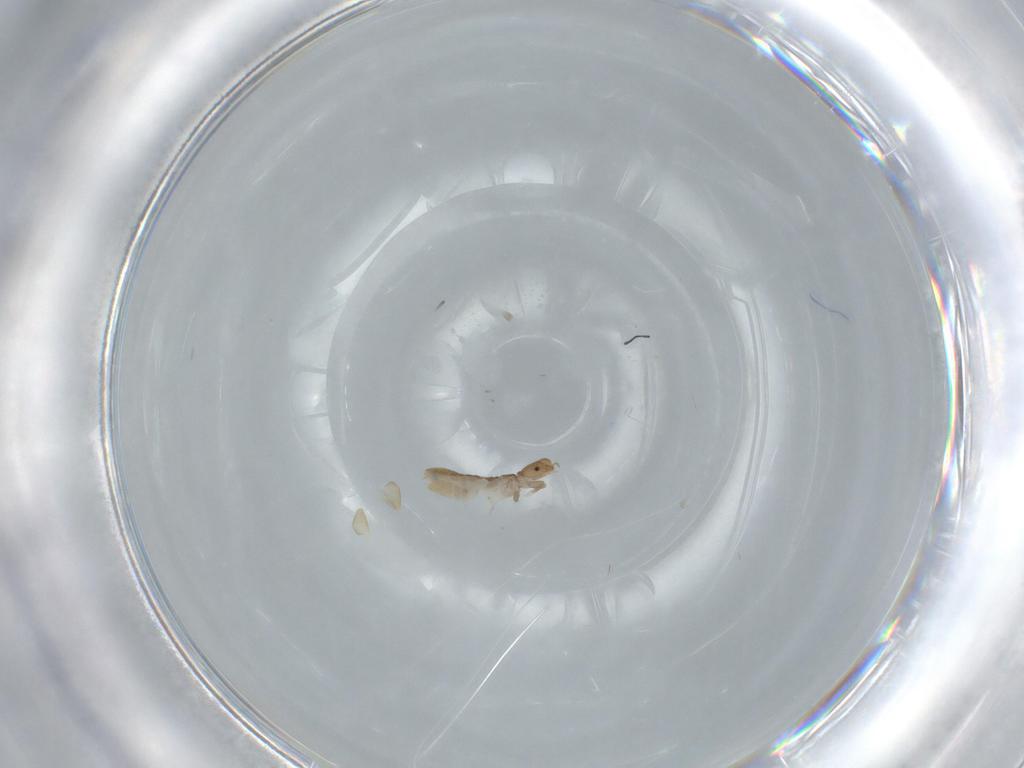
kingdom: Animalia
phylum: Arthropoda
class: Insecta
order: Psocodea
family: Liposcelididae
